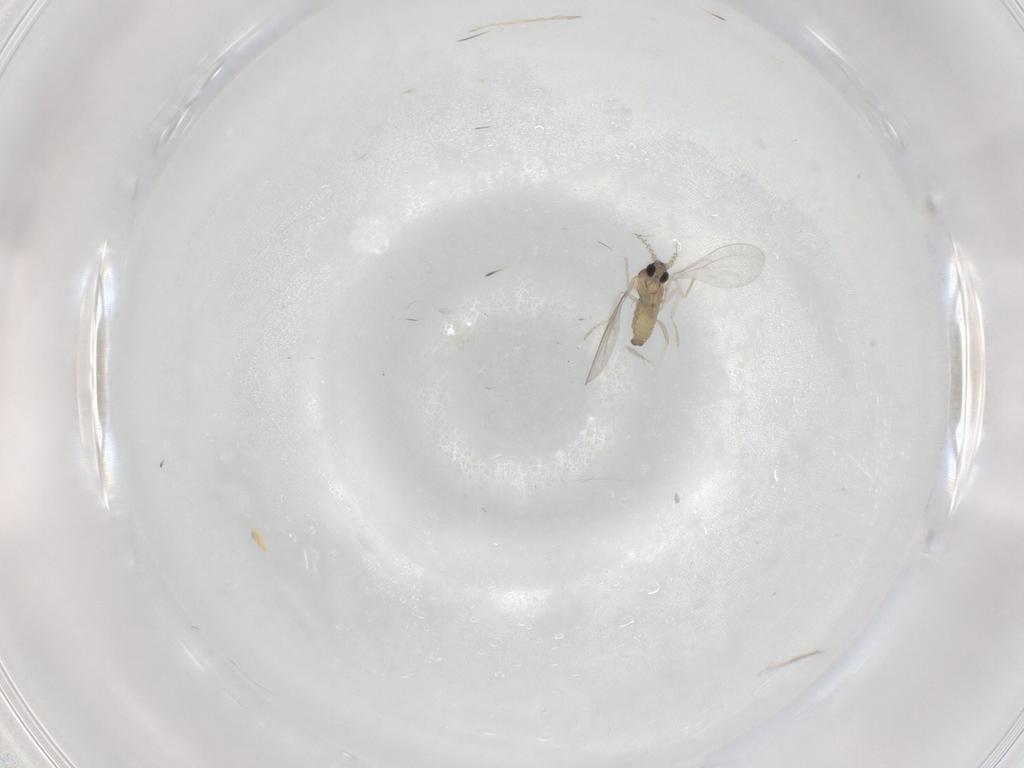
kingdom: Animalia
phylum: Arthropoda
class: Insecta
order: Diptera
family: Cecidomyiidae
